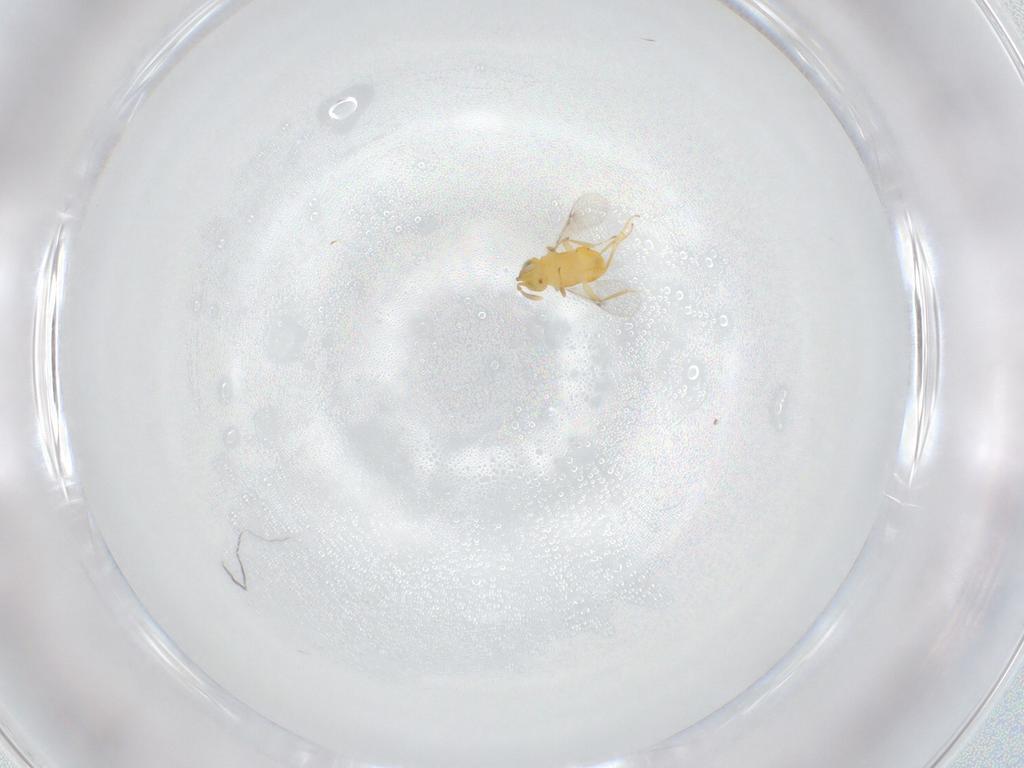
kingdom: Animalia
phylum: Arthropoda
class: Insecta
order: Hymenoptera
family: Encyrtidae
